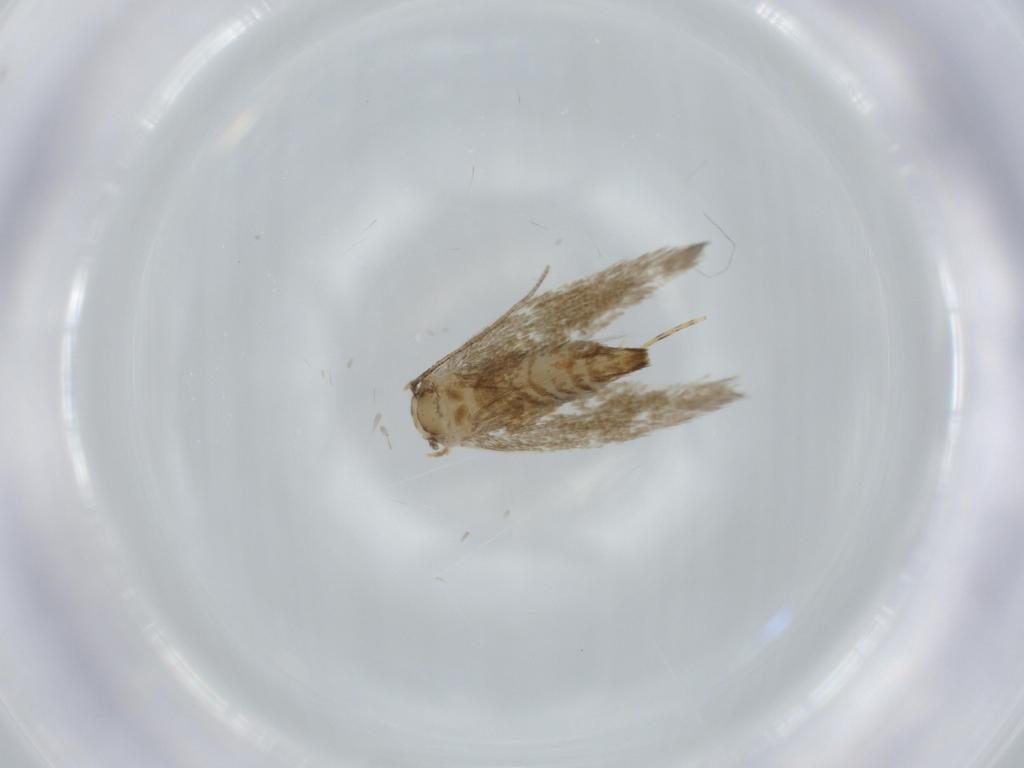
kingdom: Animalia
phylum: Arthropoda
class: Insecta
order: Lepidoptera
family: Tineidae
